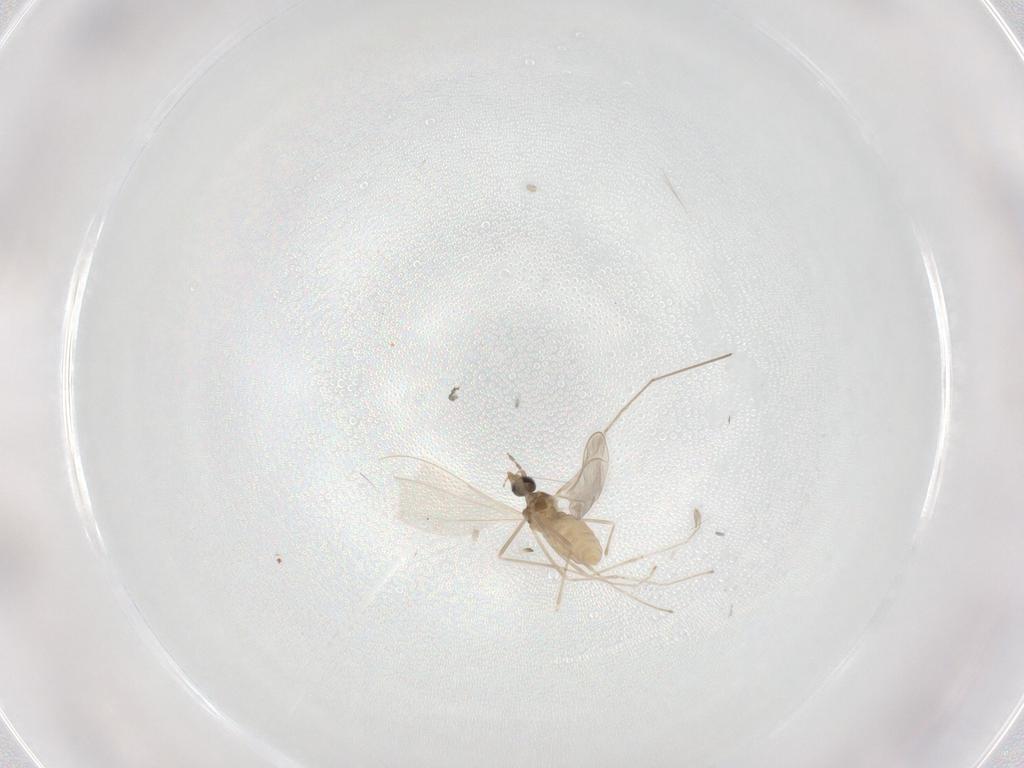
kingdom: Animalia
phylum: Arthropoda
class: Insecta
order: Diptera
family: Cecidomyiidae
